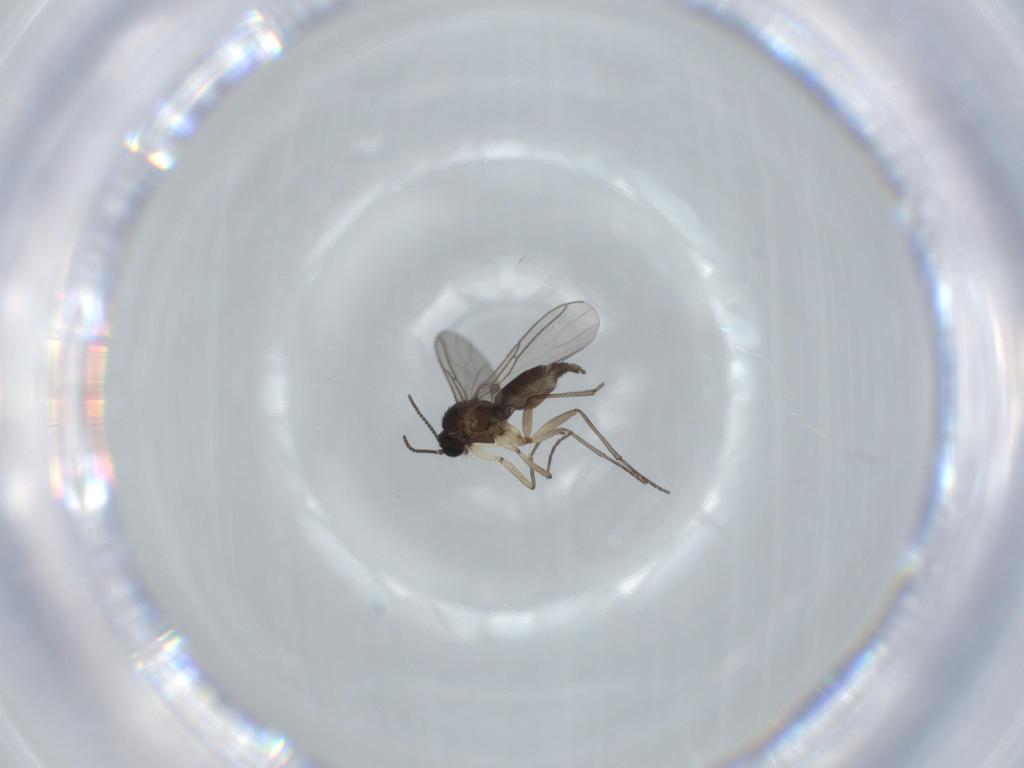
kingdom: Animalia
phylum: Arthropoda
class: Insecta
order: Diptera
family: Sciaridae
